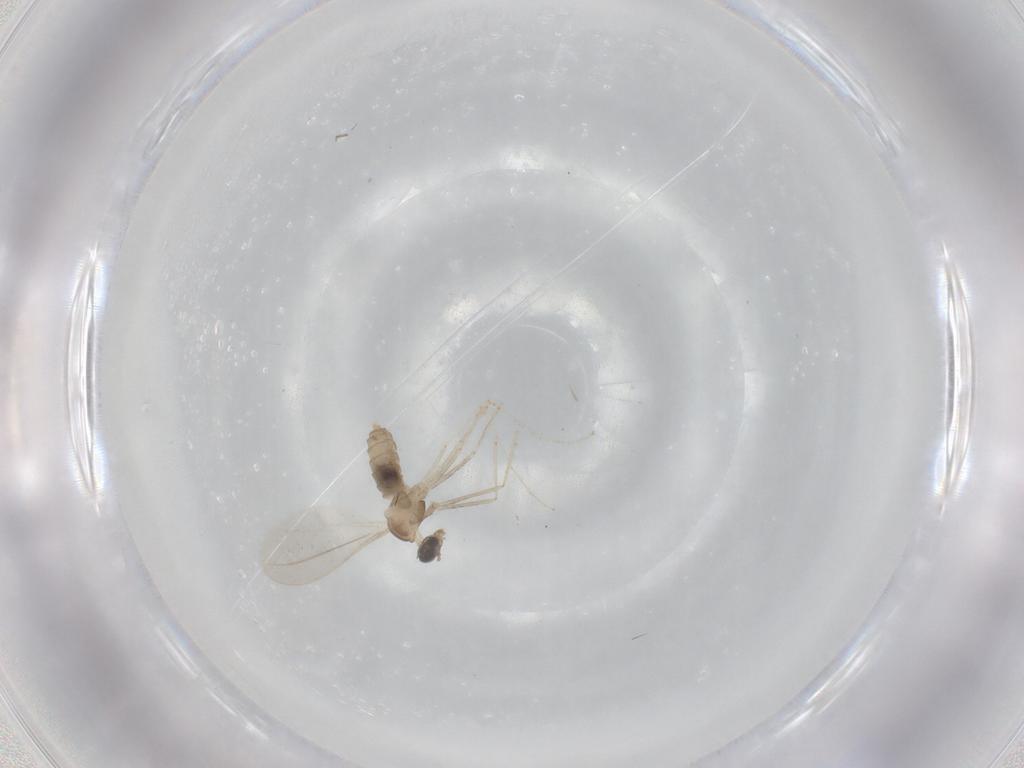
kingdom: Animalia
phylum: Arthropoda
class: Insecta
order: Diptera
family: Cecidomyiidae
